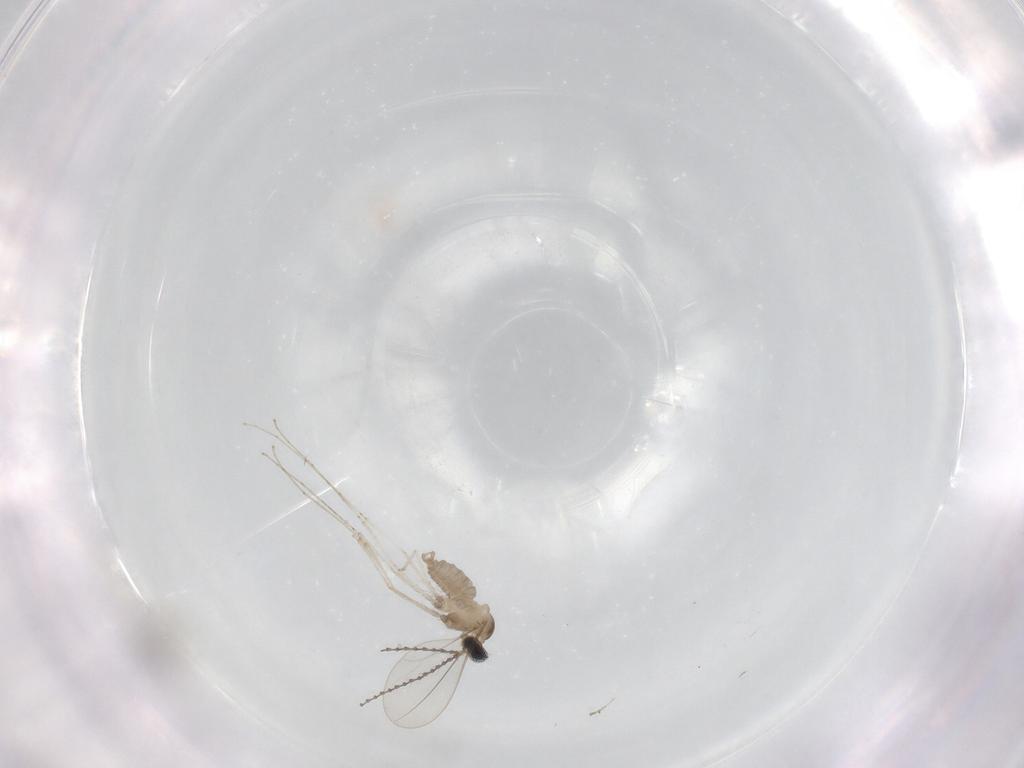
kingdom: Animalia
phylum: Arthropoda
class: Insecta
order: Diptera
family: Cecidomyiidae
